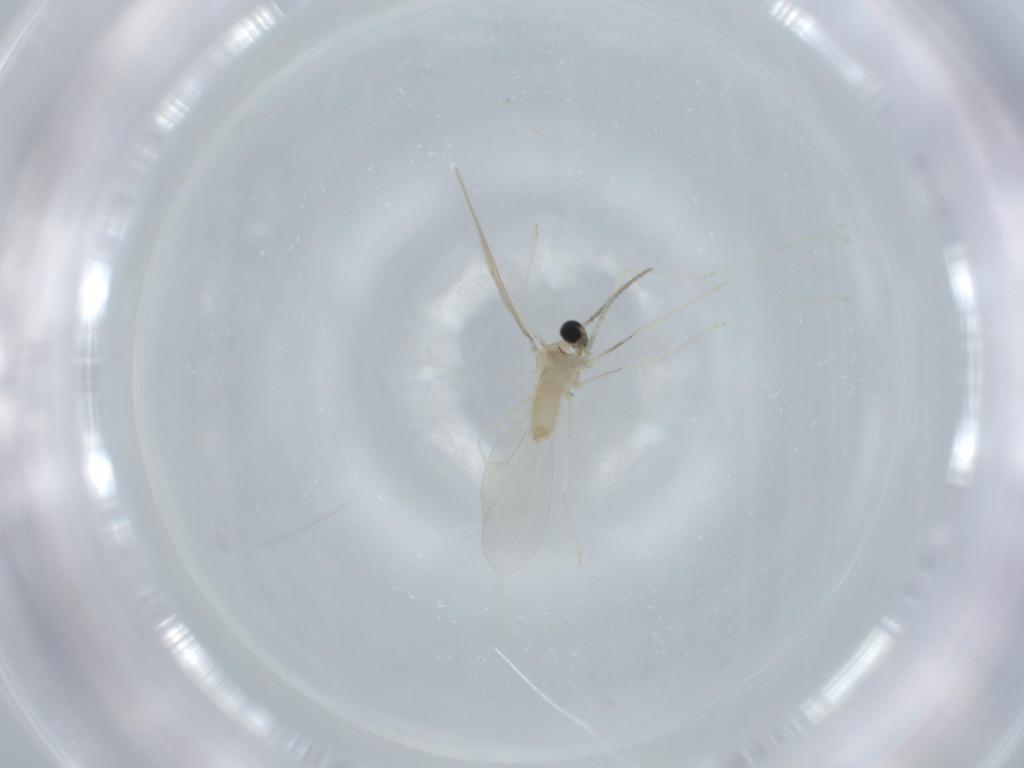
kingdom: Animalia
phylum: Arthropoda
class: Insecta
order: Diptera
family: Cecidomyiidae
